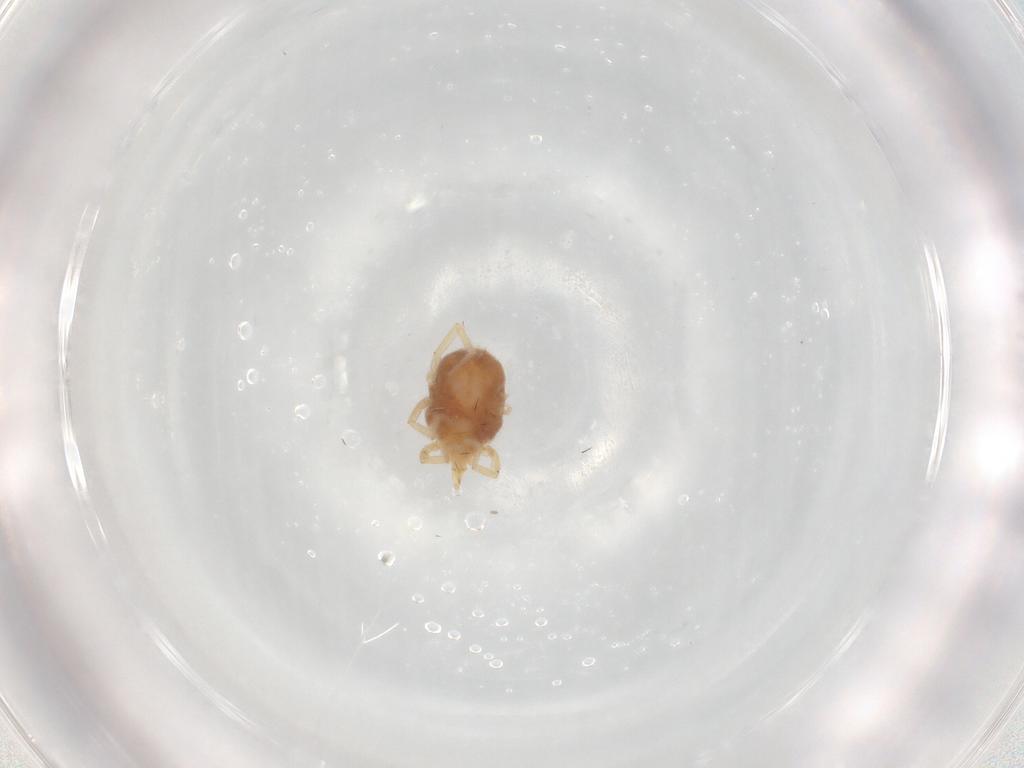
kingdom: Animalia
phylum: Arthropoda
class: Arachnida
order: Trombidiformes
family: Erythraeidae
